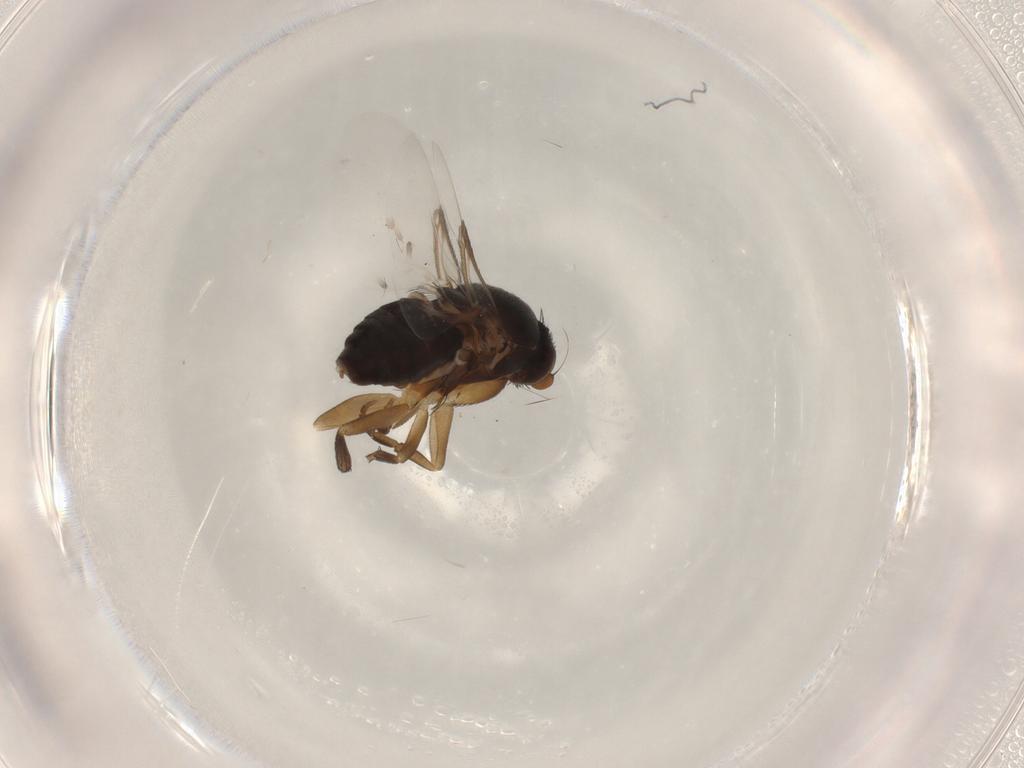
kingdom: Animalia
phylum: Arthropoda
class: Insecta
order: Diptera
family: Phoridae
